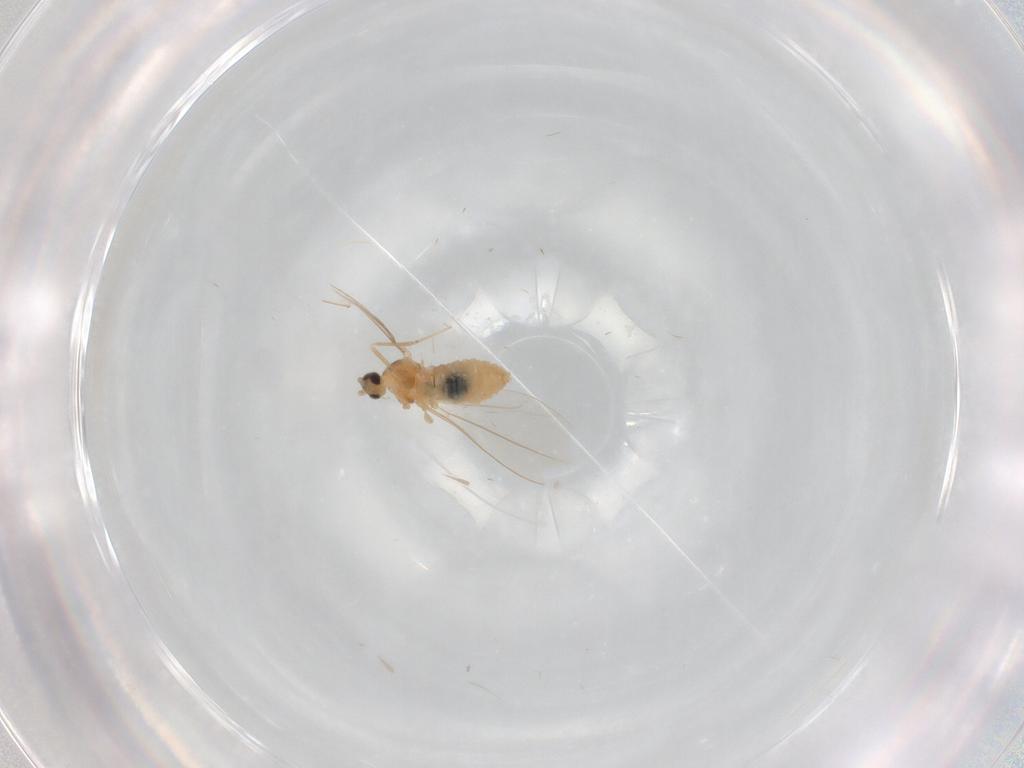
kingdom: Animalia
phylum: Arthropoda
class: Insecta
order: Diptera
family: Cecidomyiidae
